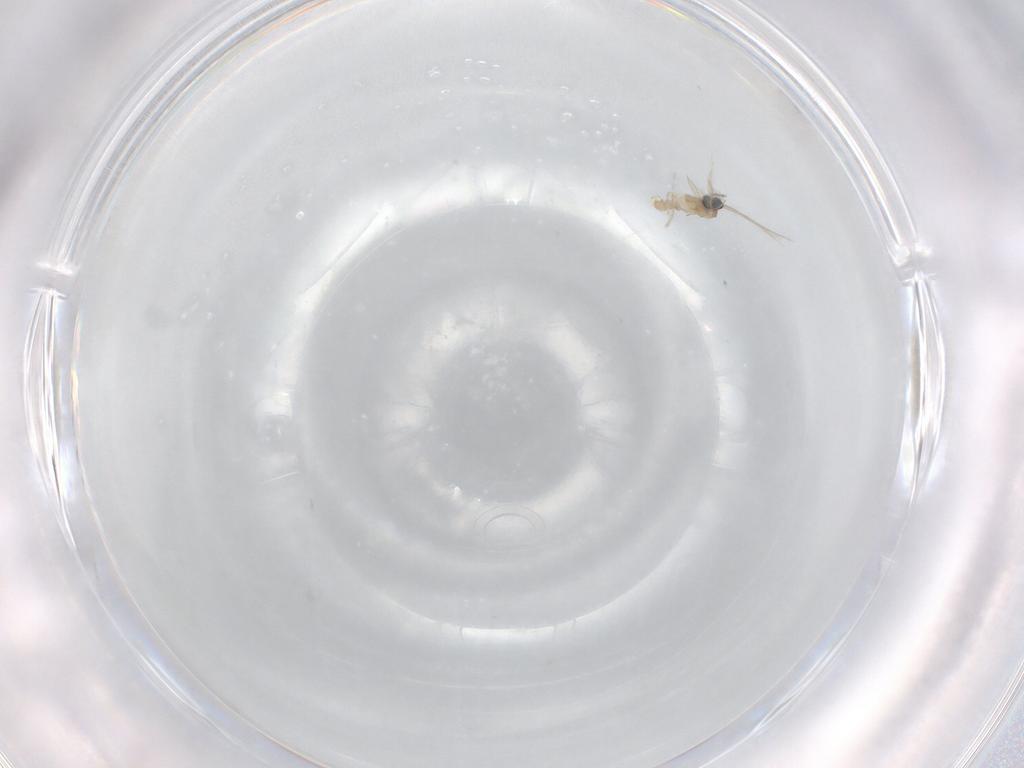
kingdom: Animalia
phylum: Arthropoda
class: Insecta
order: Diptera
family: Cecidomyiidae
